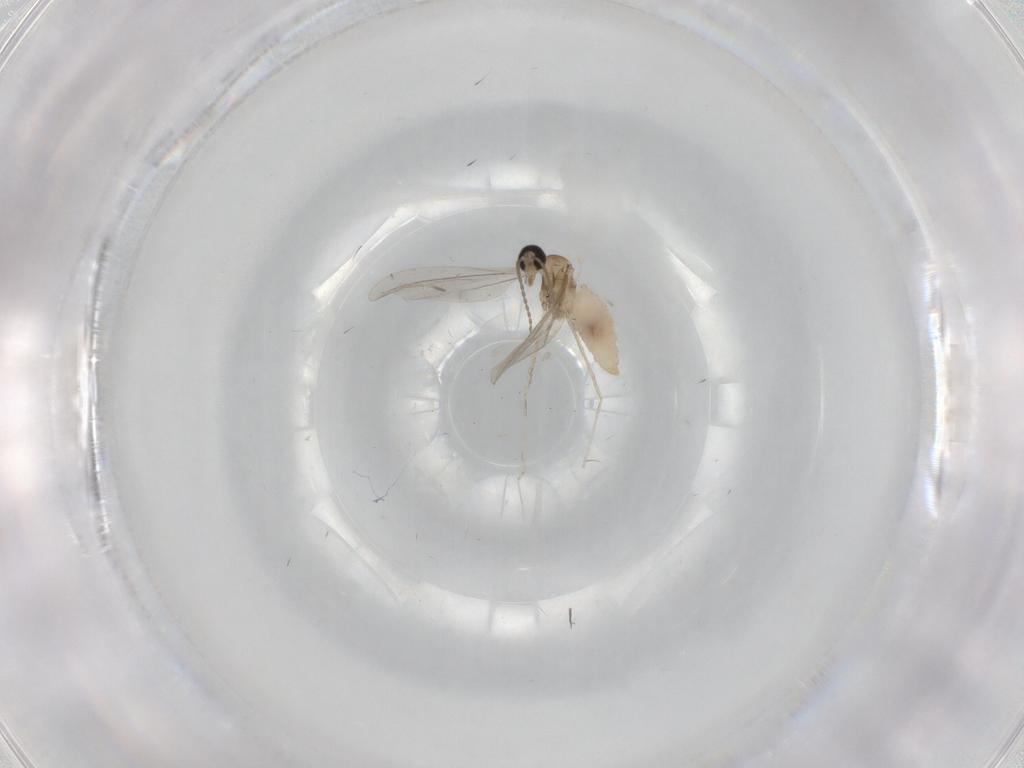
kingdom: Animalia
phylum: Arthropoda
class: Insecta
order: Diptera
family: Cecidomyiidae
